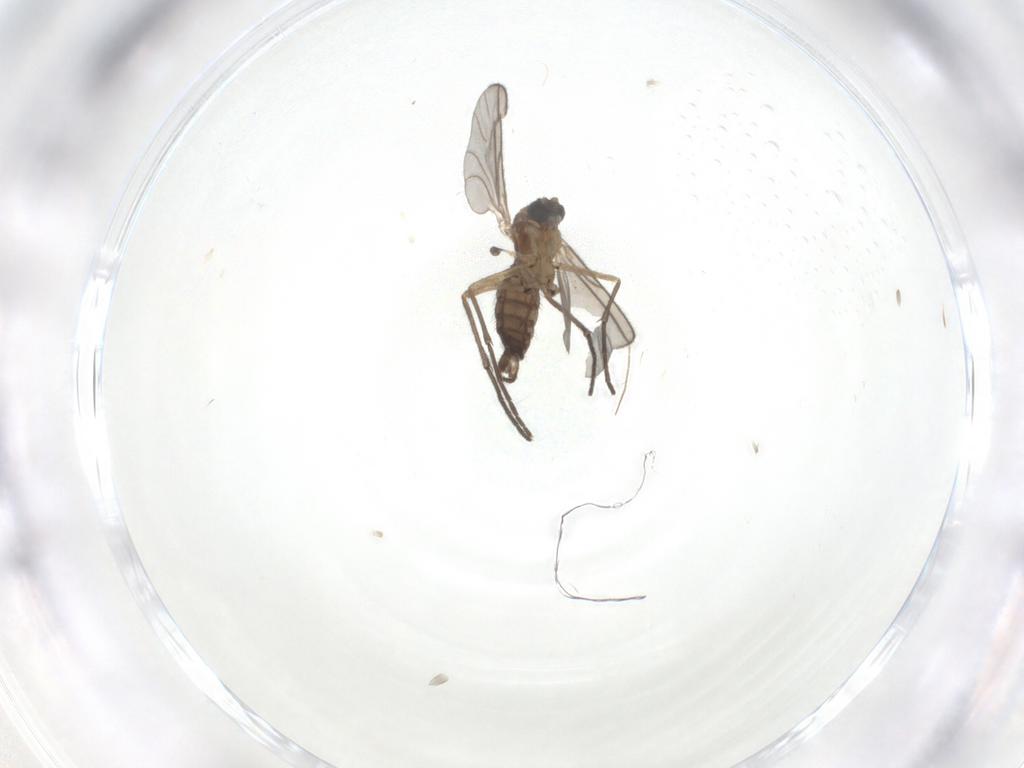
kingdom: Animalia
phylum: Arthropoda
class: Insecta
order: Diptera
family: Sciaridae
